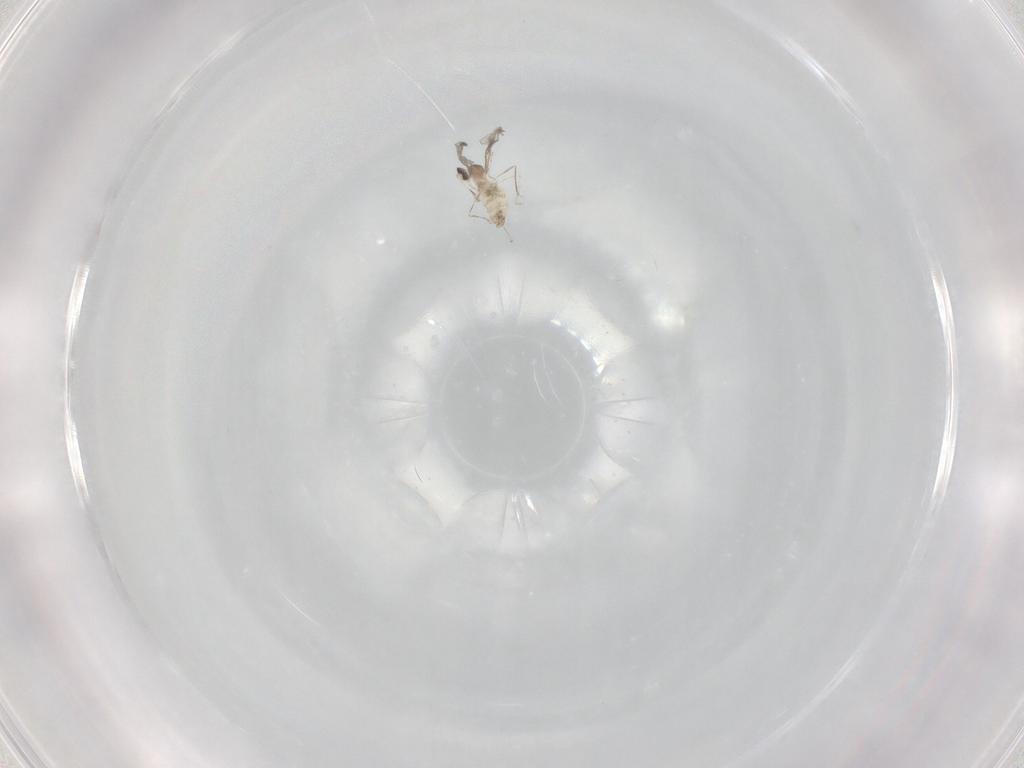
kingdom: Animalia
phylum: Arthropoda
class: Insecta
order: Diptera
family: Cecidomyiidae
